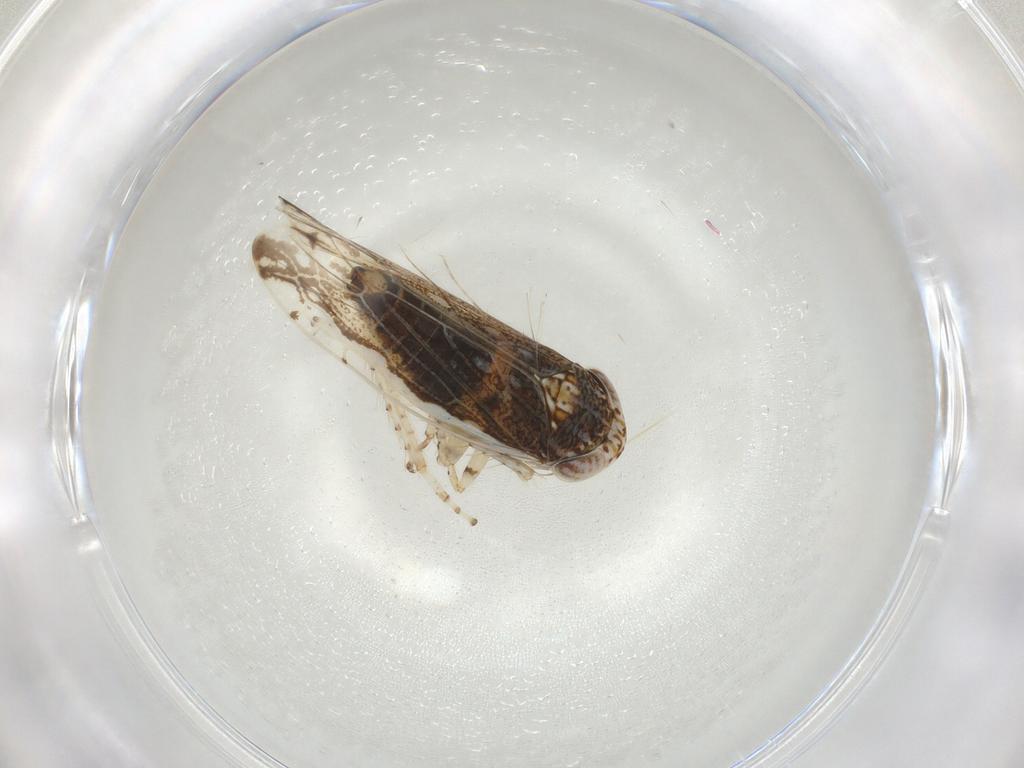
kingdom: Animalia
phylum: Arthropoda
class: Insecta
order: Hemiptera
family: Cicadellidae
